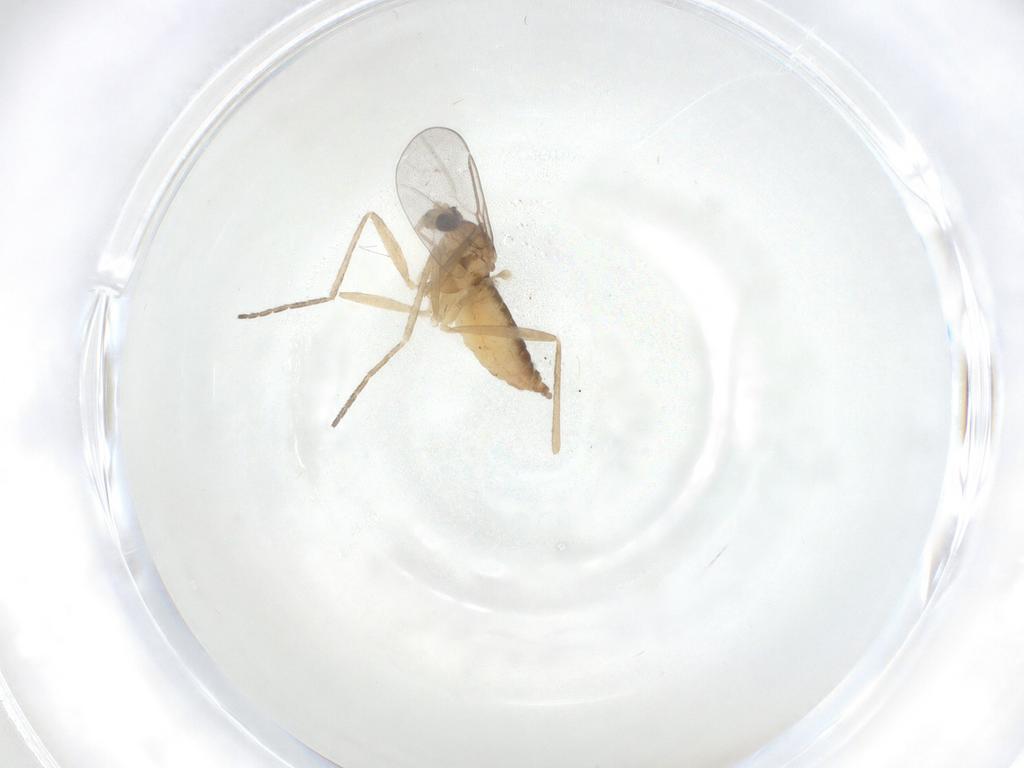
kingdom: Animalia
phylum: Arthropoda
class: Insecta
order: Diptera
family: Cecidomyiidae
